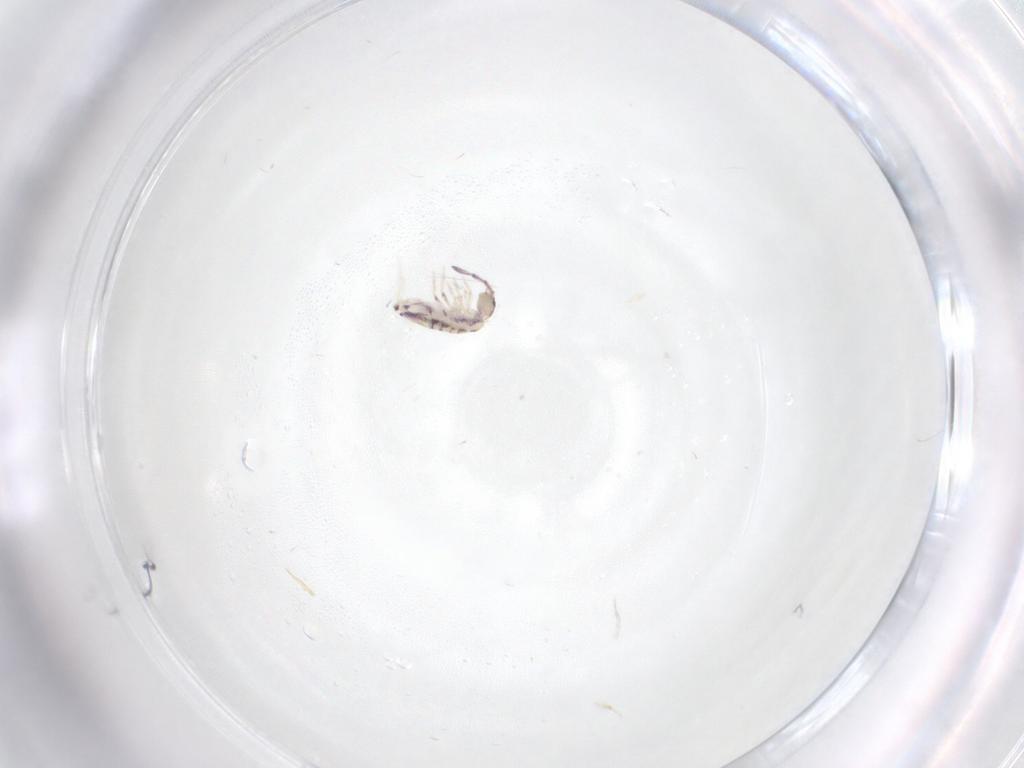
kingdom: Animalia
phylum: Arthropoda
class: Collembola
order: Entomobryomorpha
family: Entomobryidae
